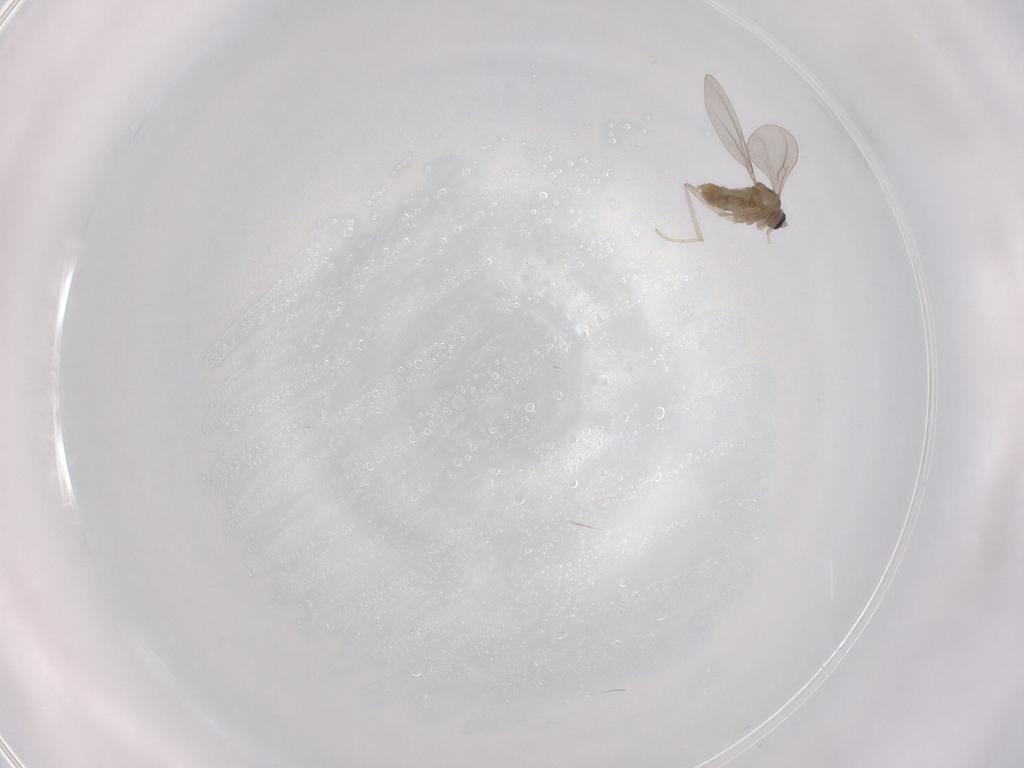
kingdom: Animalia
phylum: Arthropoda
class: Insecta
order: Diptera
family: Cecidomyiidae
